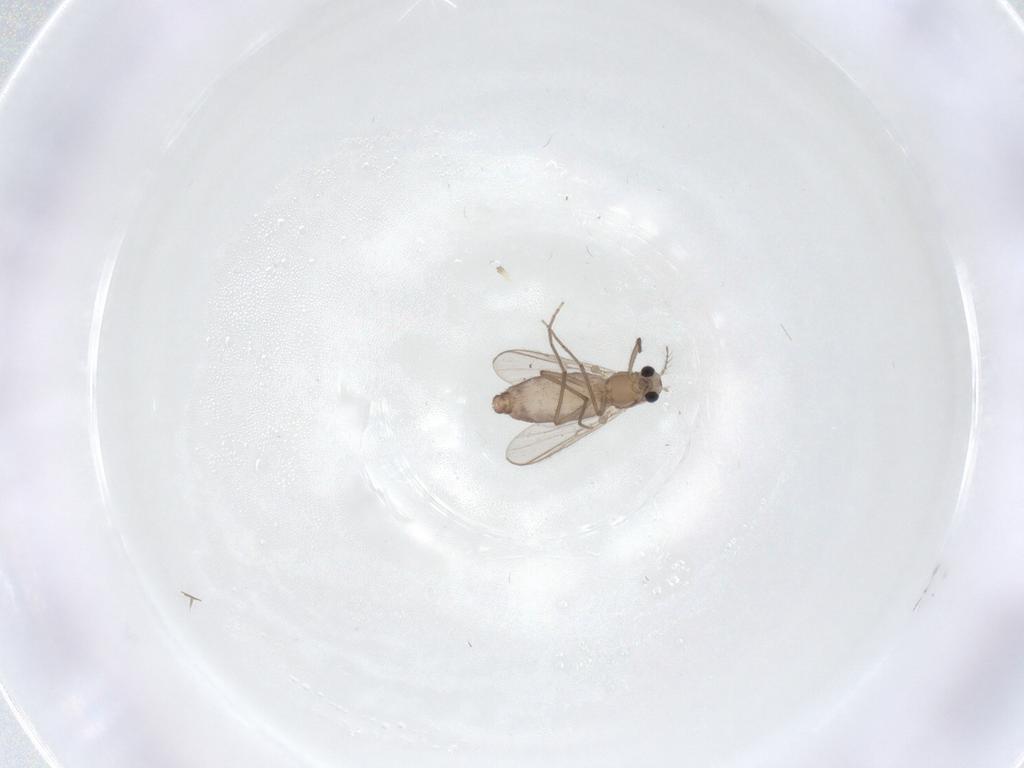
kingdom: Animalia
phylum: Arthropoda
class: Insecta
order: Diptera
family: Chironomidae
